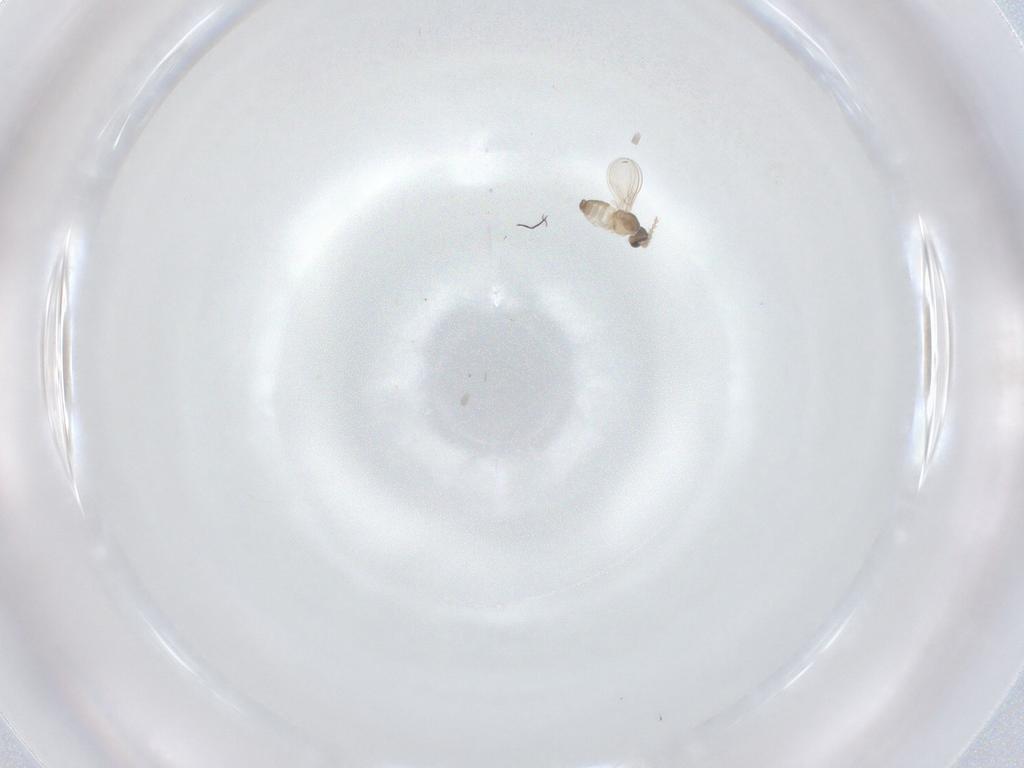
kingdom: Animalia
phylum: Arthropoda
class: Insecta
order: Diptera
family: Cecidomyiidae
